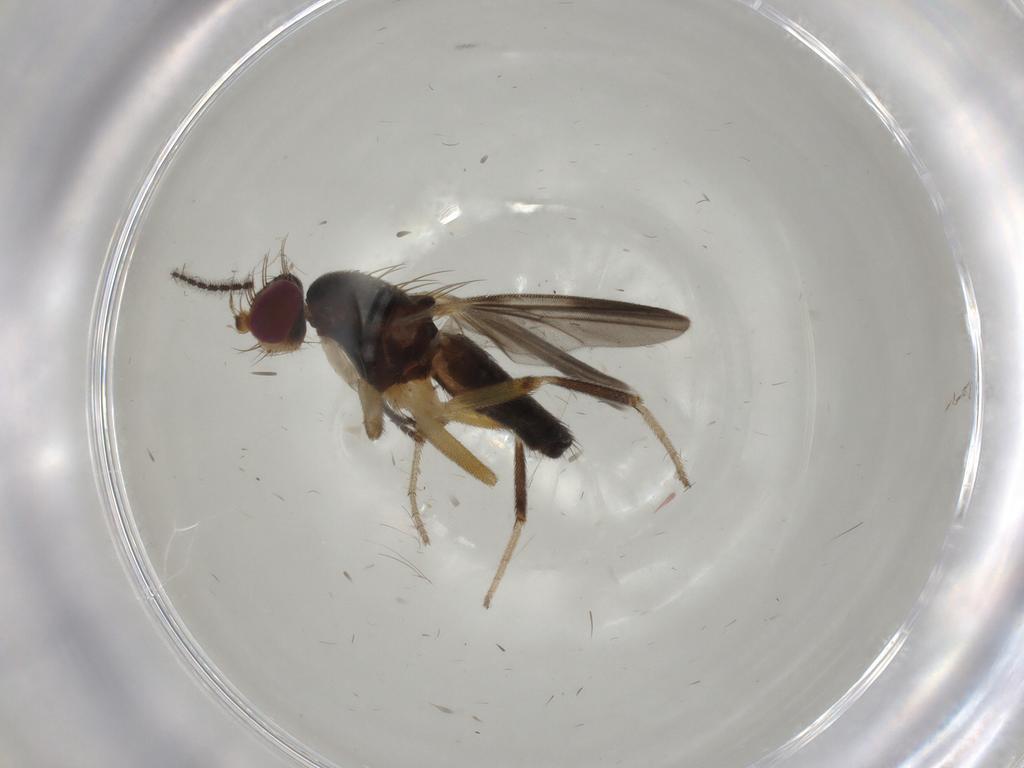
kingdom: Animalia
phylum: Arthropoda
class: Insecta
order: Diptera
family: Clusiidae
